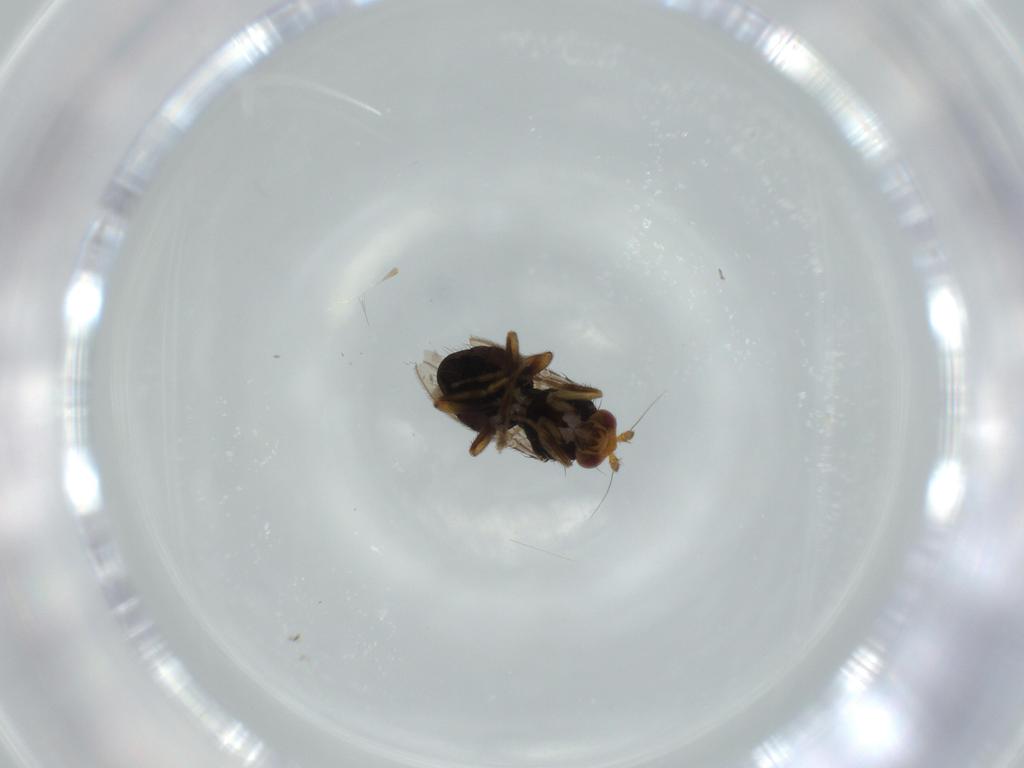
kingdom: Animalia
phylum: Arthropoda
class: Insecta
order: Diptera
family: Sphaeroceridae
